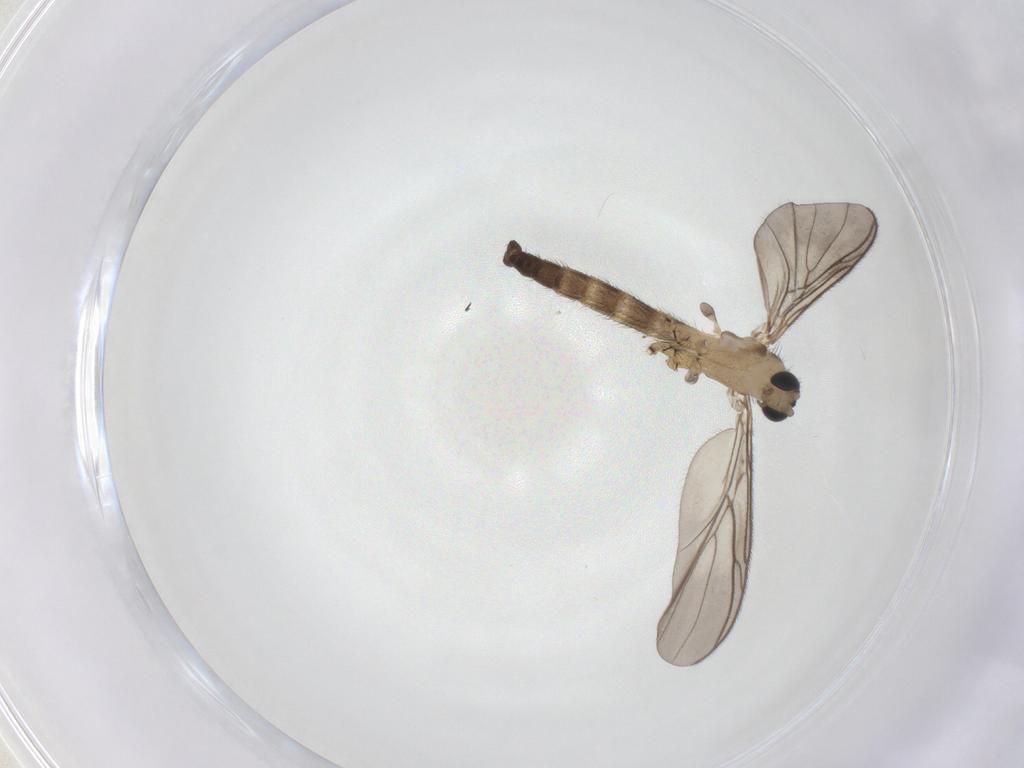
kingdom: Animalia
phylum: Arthropoda
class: Insecta
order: Diptera
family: Keroplatidae
